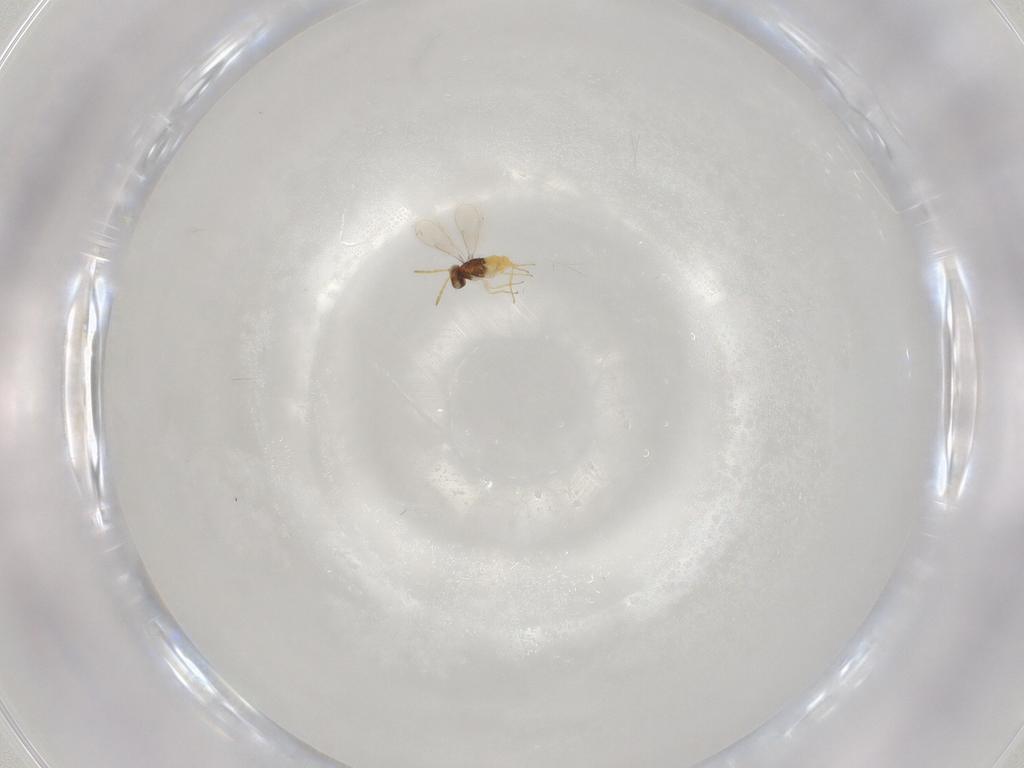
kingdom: Animalia
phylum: Arthropoda
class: Insecta
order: Hymenoptera
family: Aphelinidae
